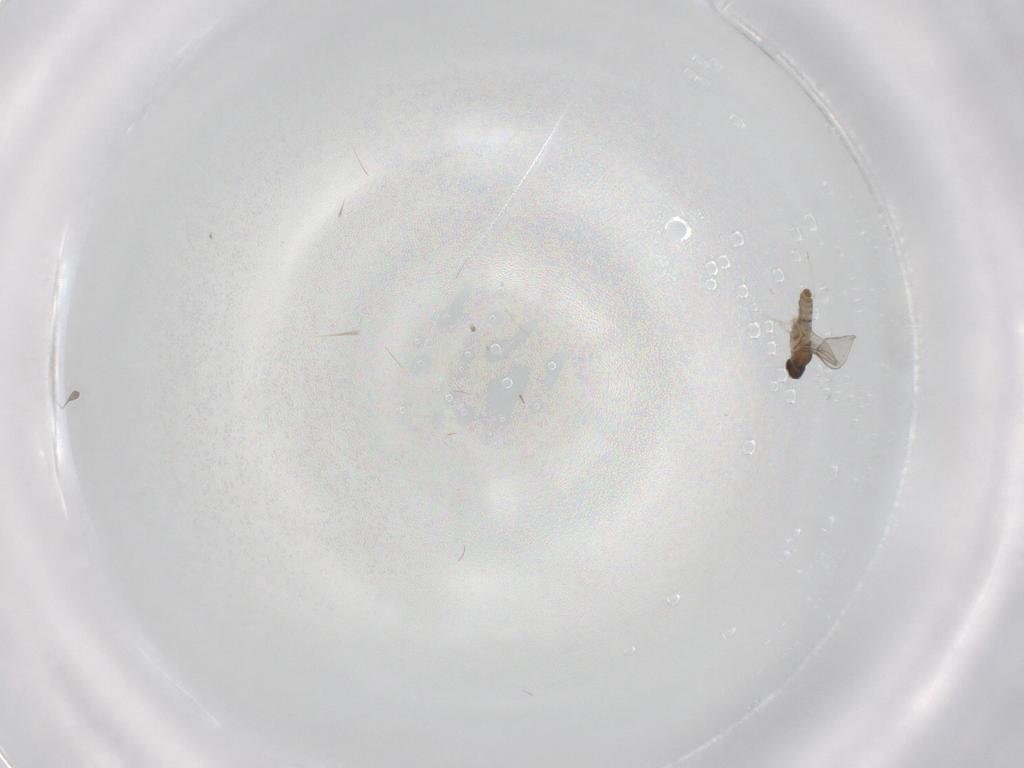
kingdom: Animalia
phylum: Arthropoda
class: Insecta
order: Diptera
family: Cecidomyiidae
